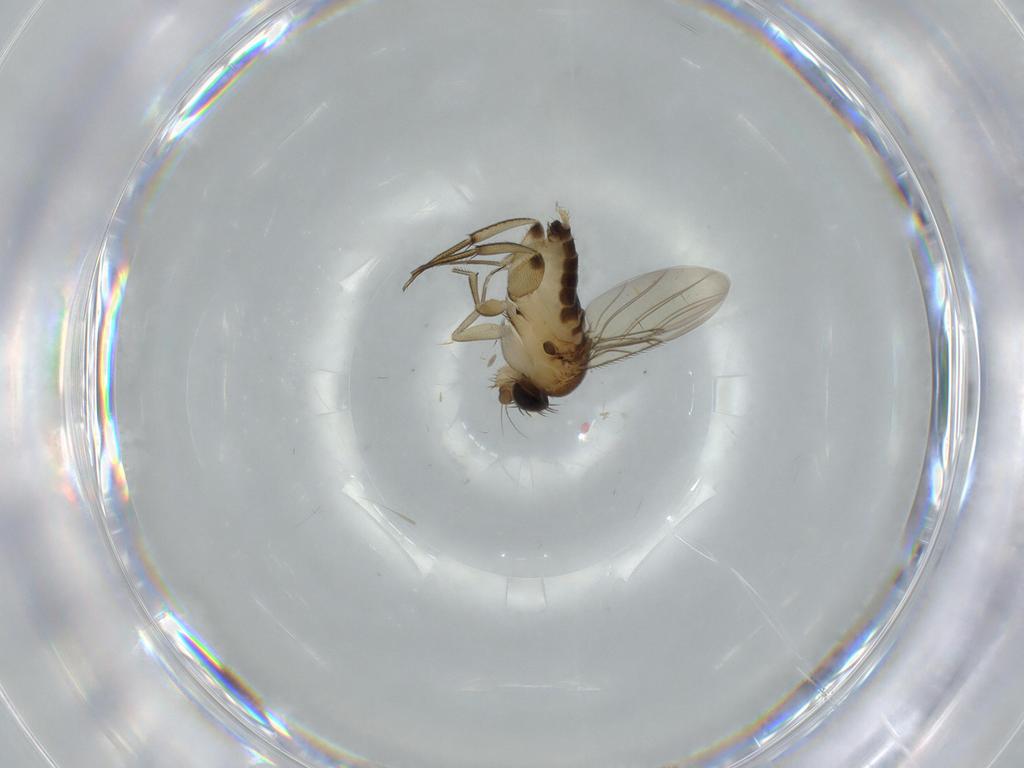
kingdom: Animalia
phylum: Arthropoda
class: Insecta
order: Diptera
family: Phoridae
